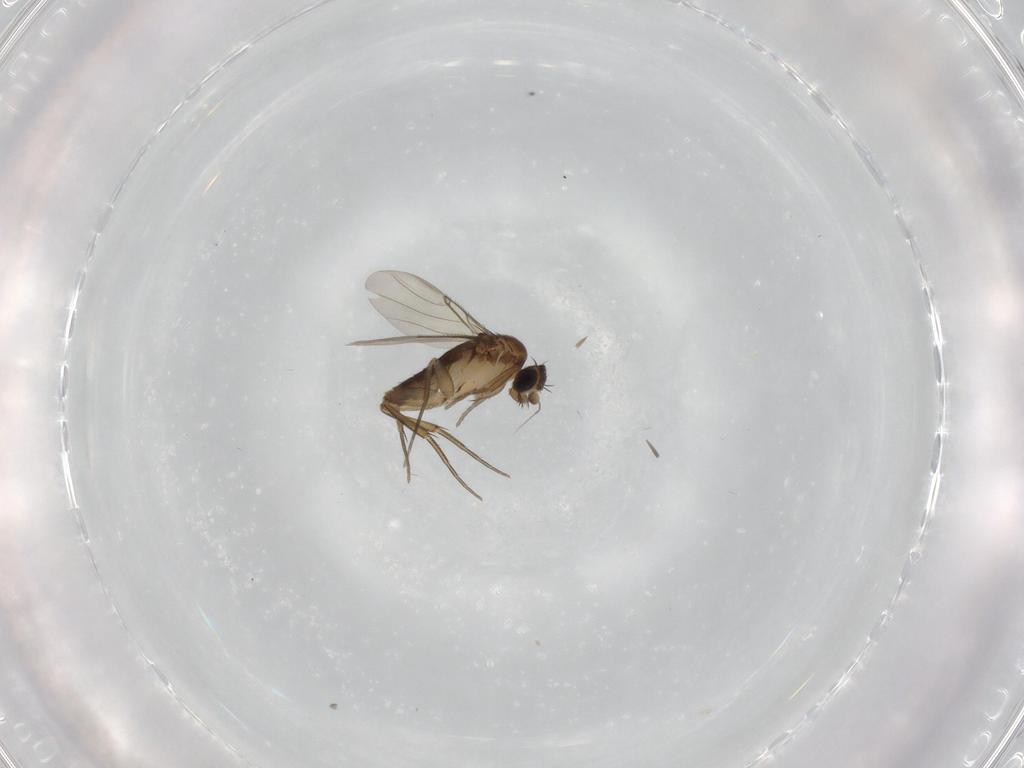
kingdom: Animalia
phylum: Arthropoda
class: Insecta
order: Diptera
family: Phoridae
